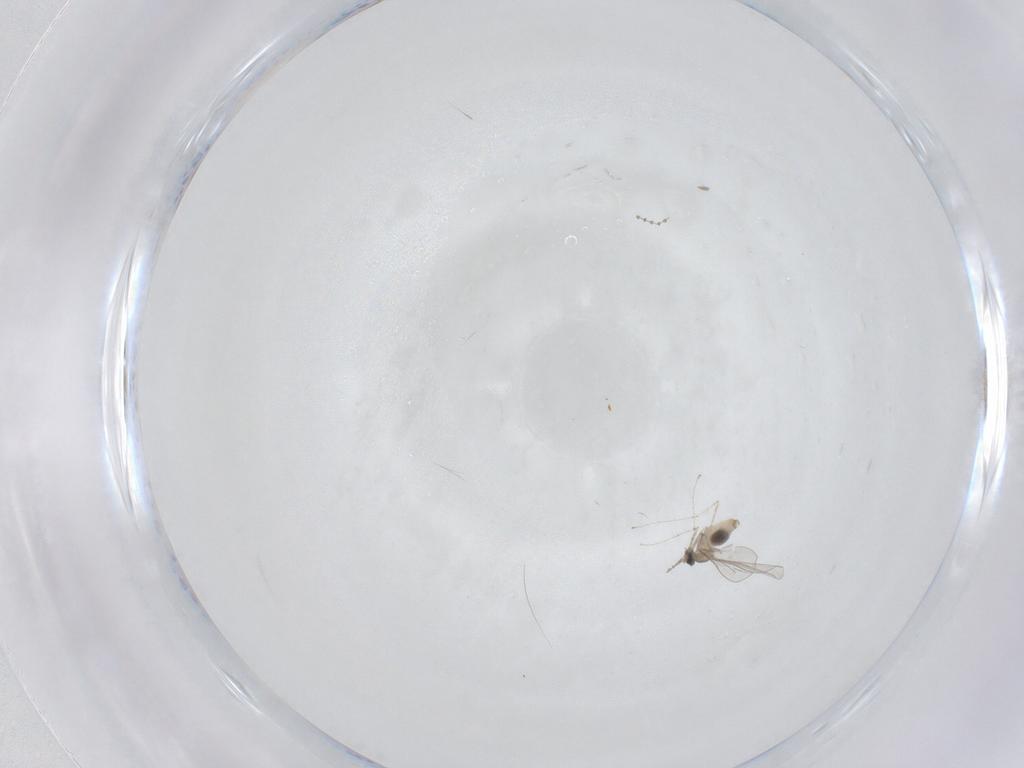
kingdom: Animalia
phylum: Arthropoda
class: Insecta
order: Diptera
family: Cecidomyiidae
